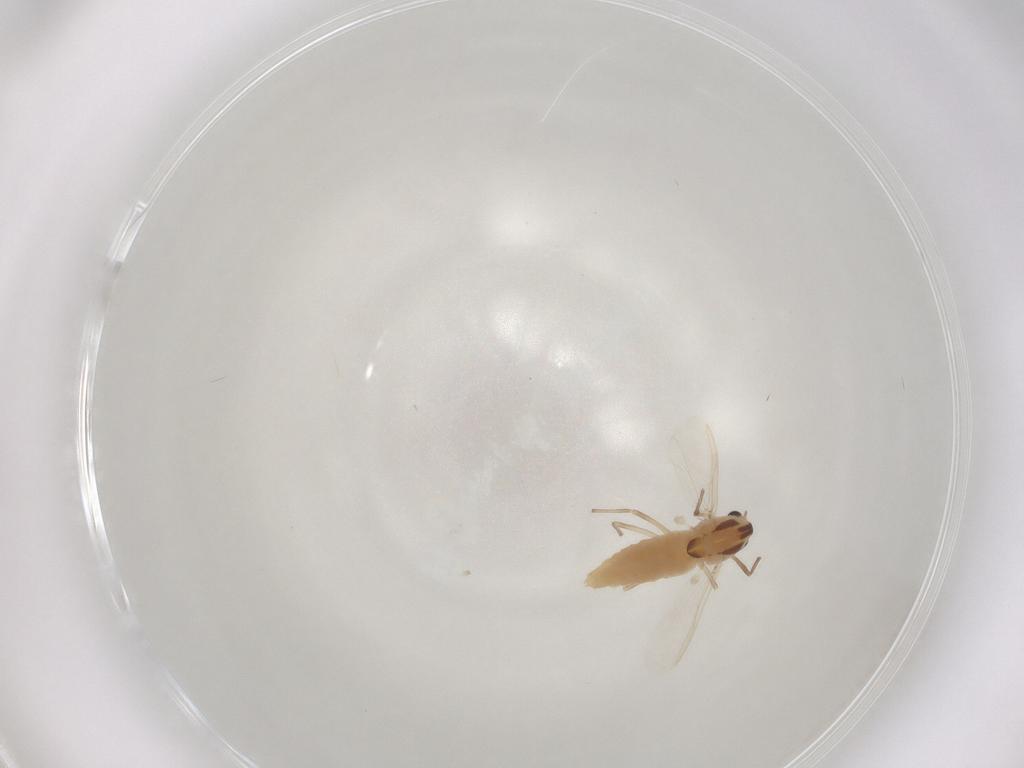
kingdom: Animalia
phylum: Arthropoda
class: Insecta
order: Diptera
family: Chironomidae
